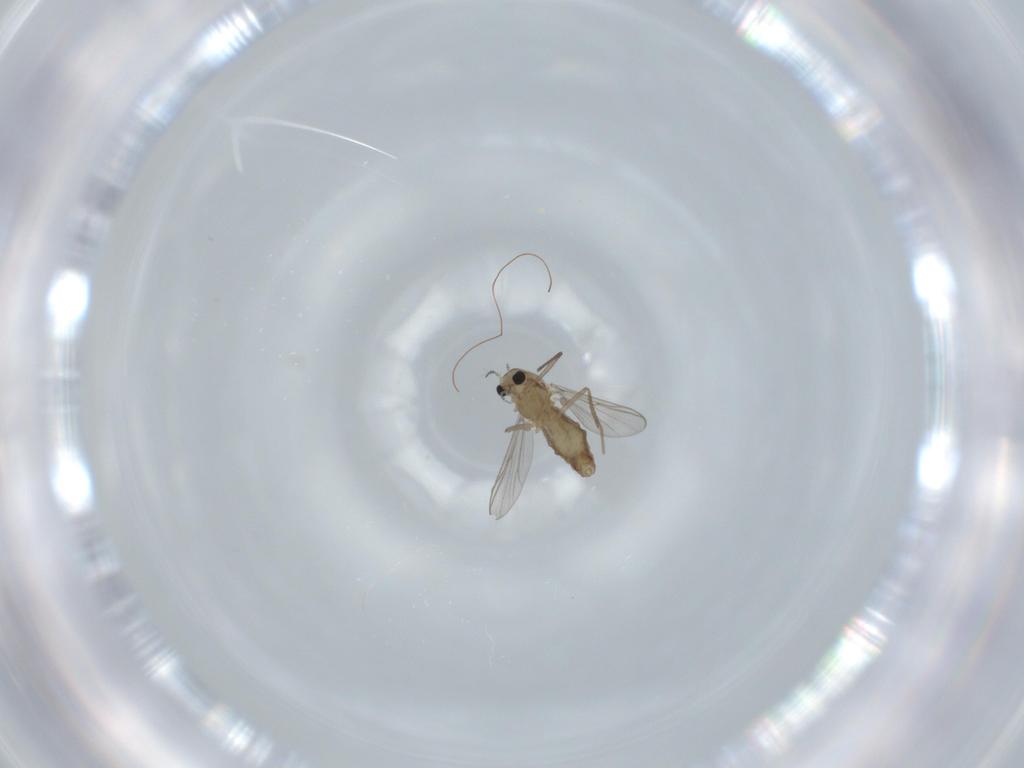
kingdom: Animalia
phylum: Arthropoda
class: Insecta
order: Diptera
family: Chironomidae
